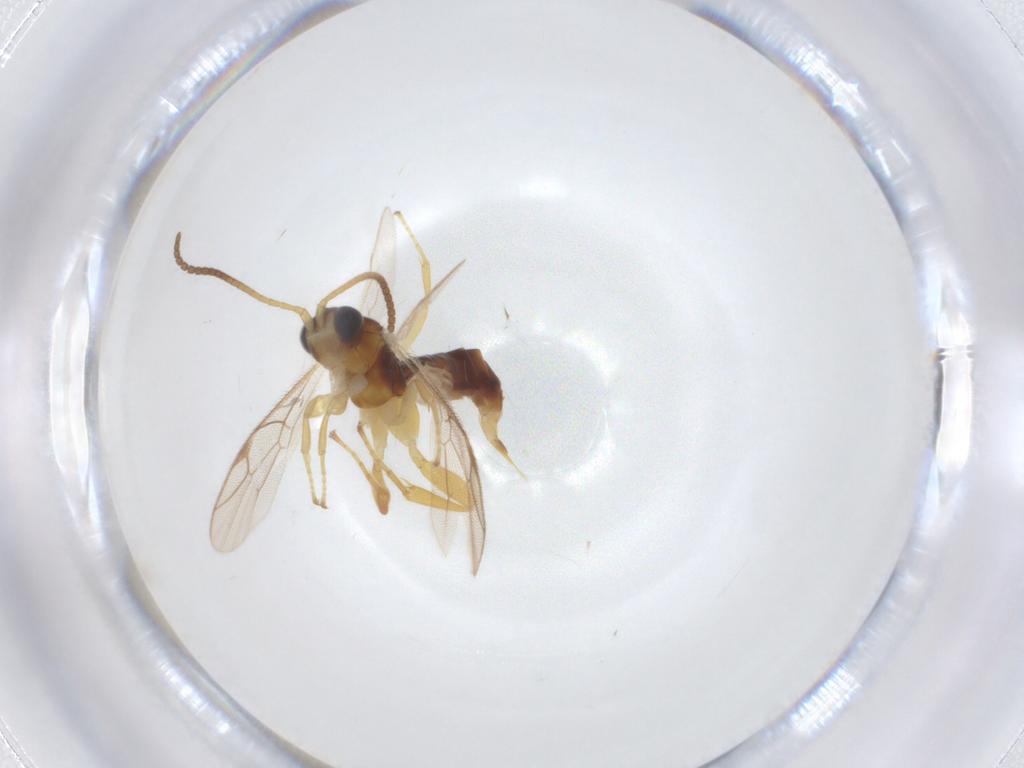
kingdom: Animalia
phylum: Arthropoda
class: Insecta
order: Hymenoptera
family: Ichneumonidae
